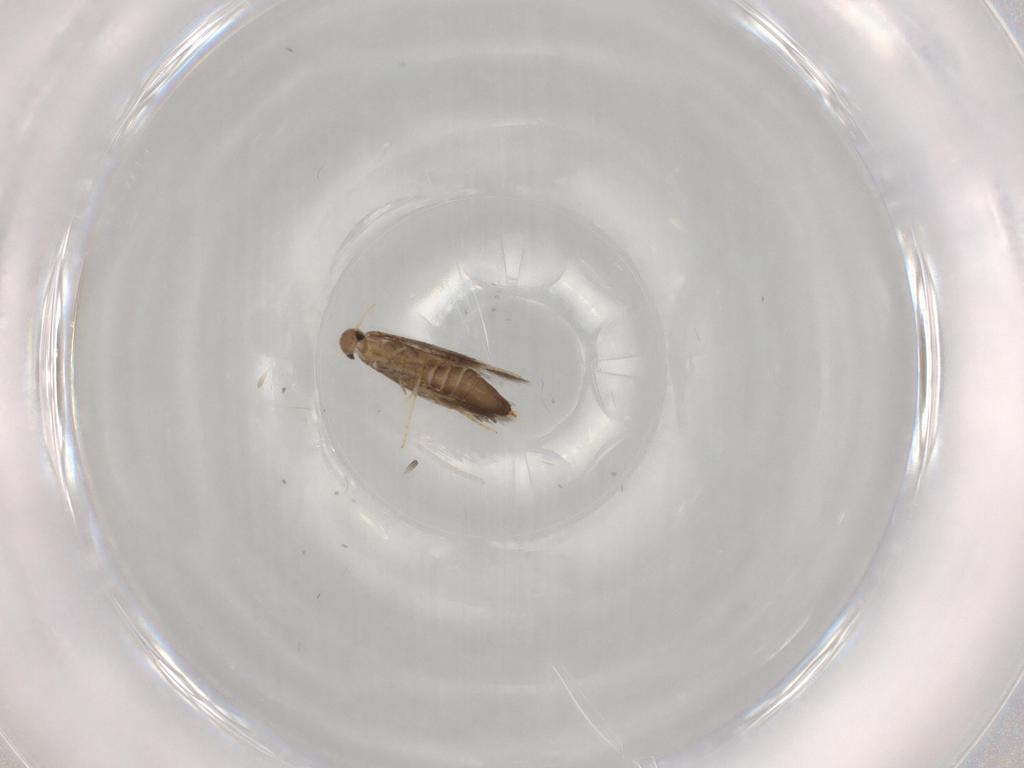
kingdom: Animalia
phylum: Arthropoda
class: Insecta
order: Lepidoptera
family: Heliozelidae
